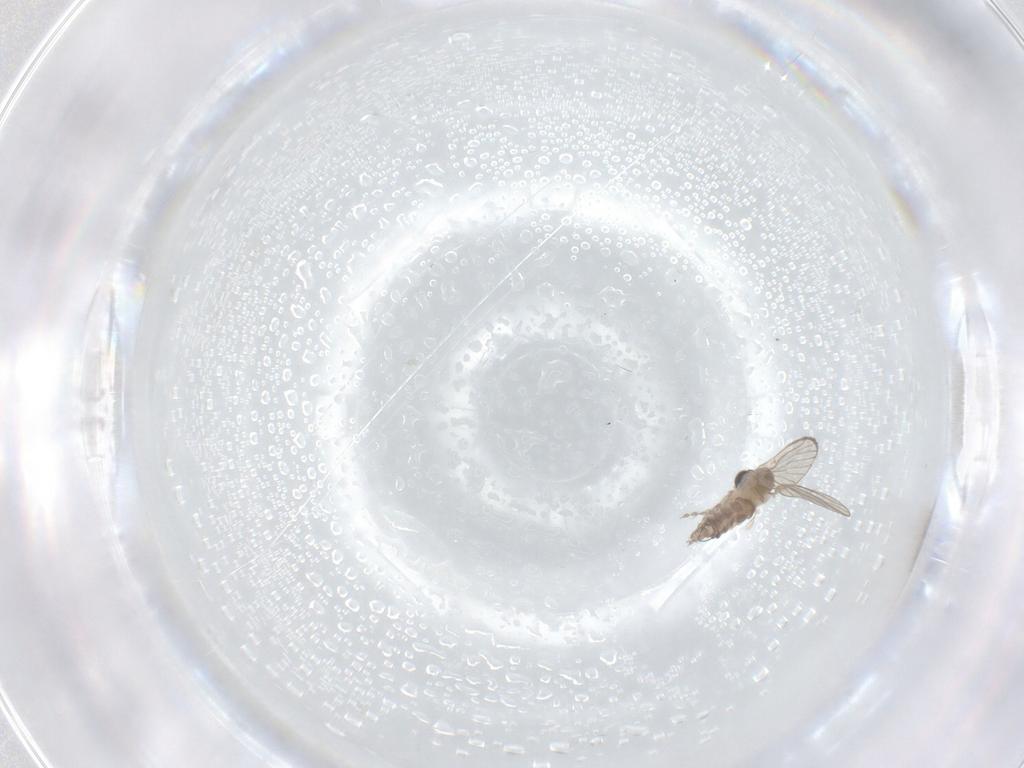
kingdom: Animalia
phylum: Arthropoda
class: Insecta
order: Diptera
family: Psychodidae
